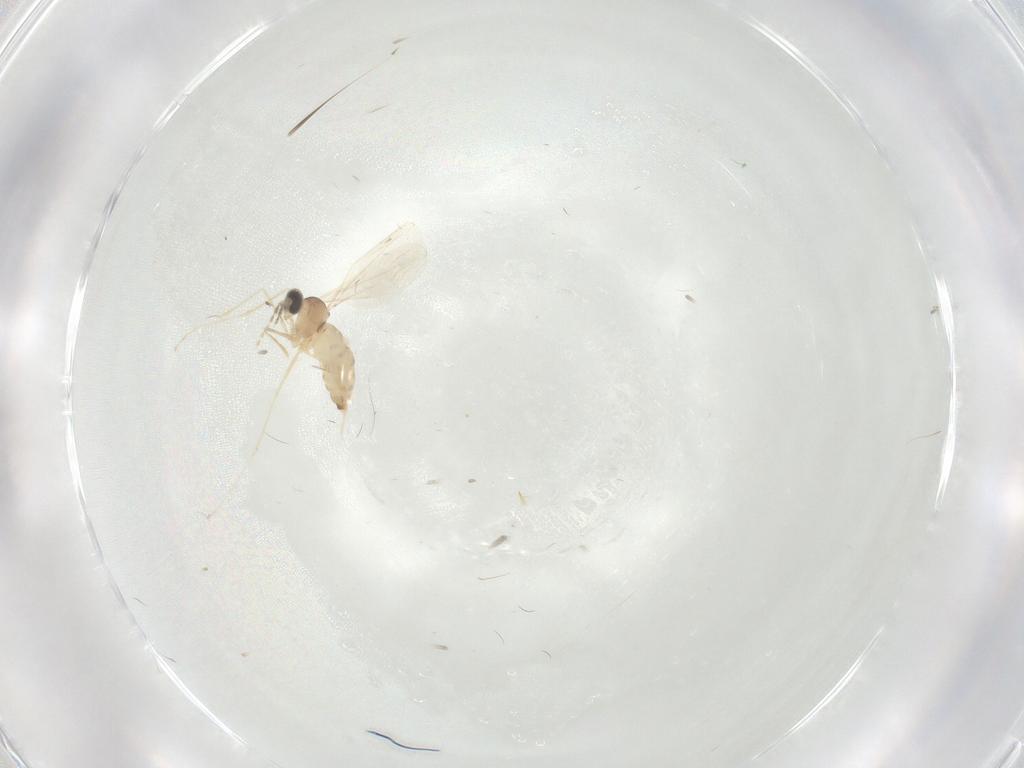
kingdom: Animalia
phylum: Arthropoda
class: Insecta
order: Diptera
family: Cecidomyiidae
